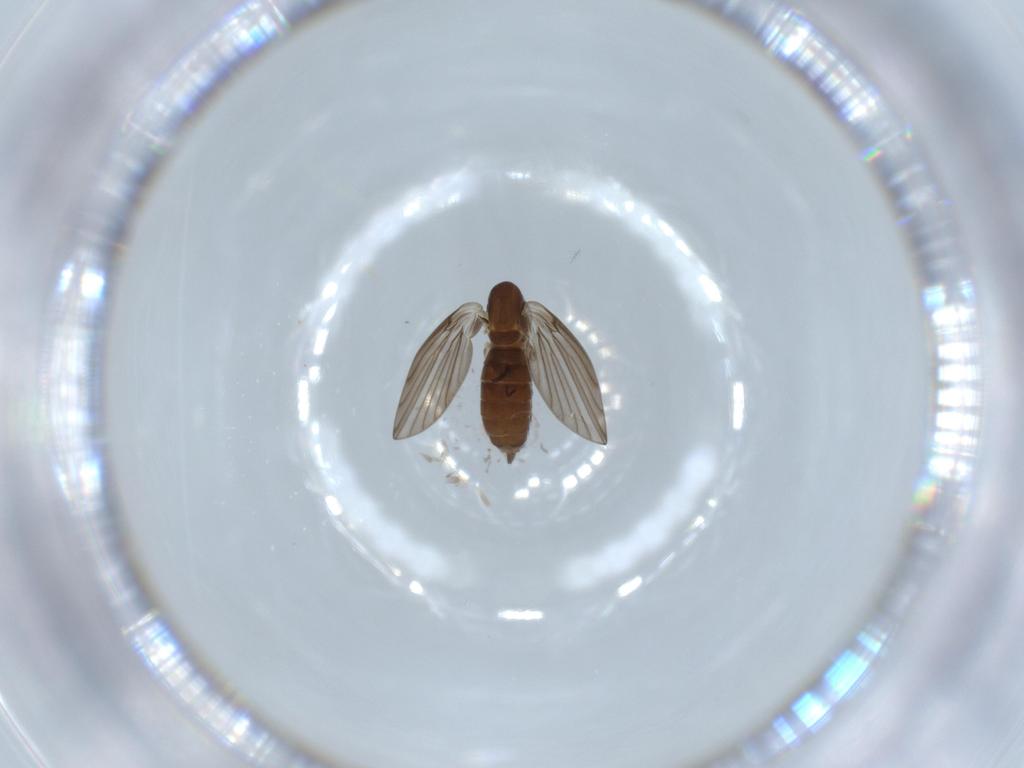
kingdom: Animalia
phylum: Arthropoda
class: Insecta
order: Diptera
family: Psychodidae
